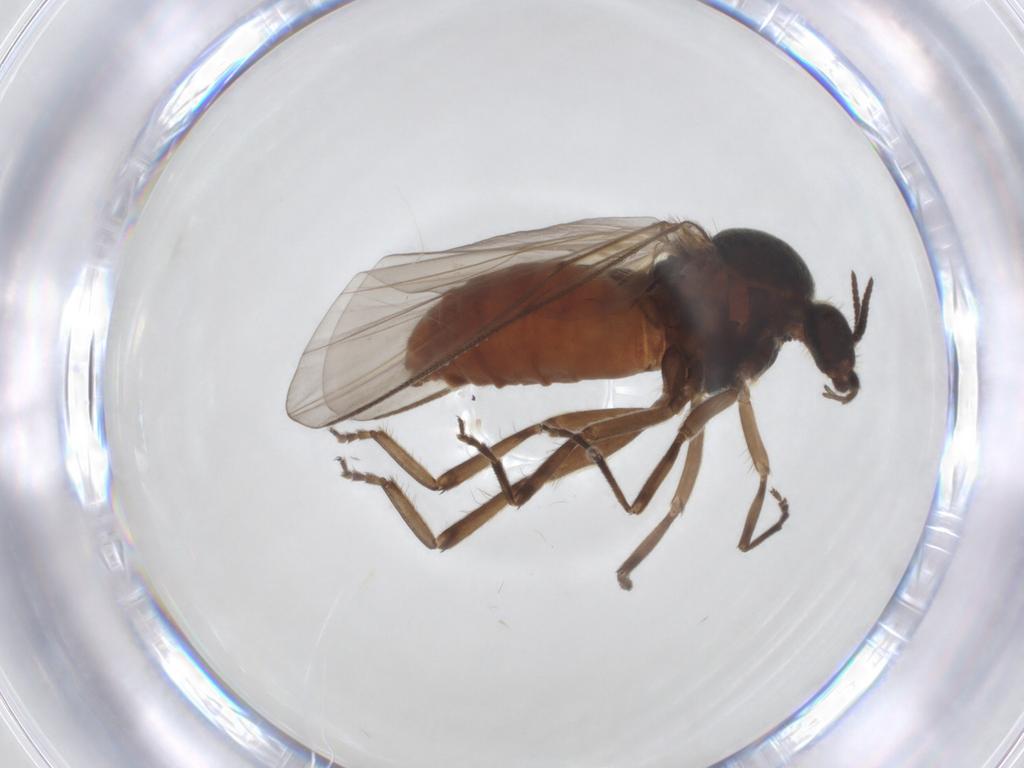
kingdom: Animalia
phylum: Arthropoda
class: Insecta
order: Diptera
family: Simuliidae
